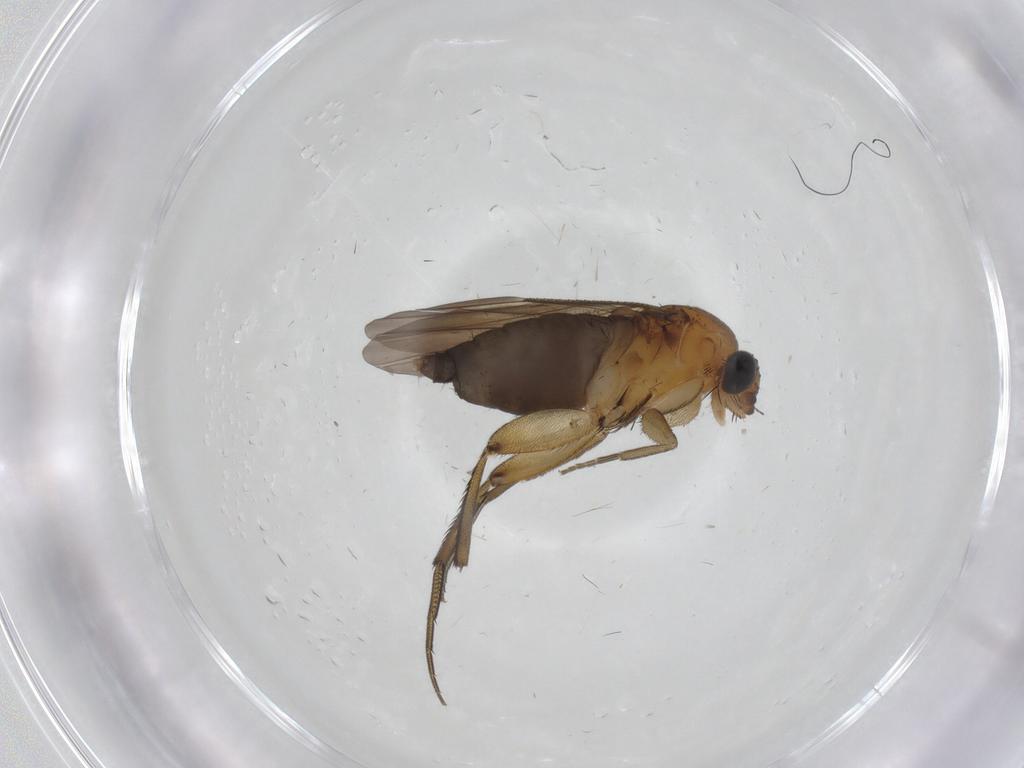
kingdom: Animalia
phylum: Arthropoda
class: Insecta
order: Diptera
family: Phoridae
